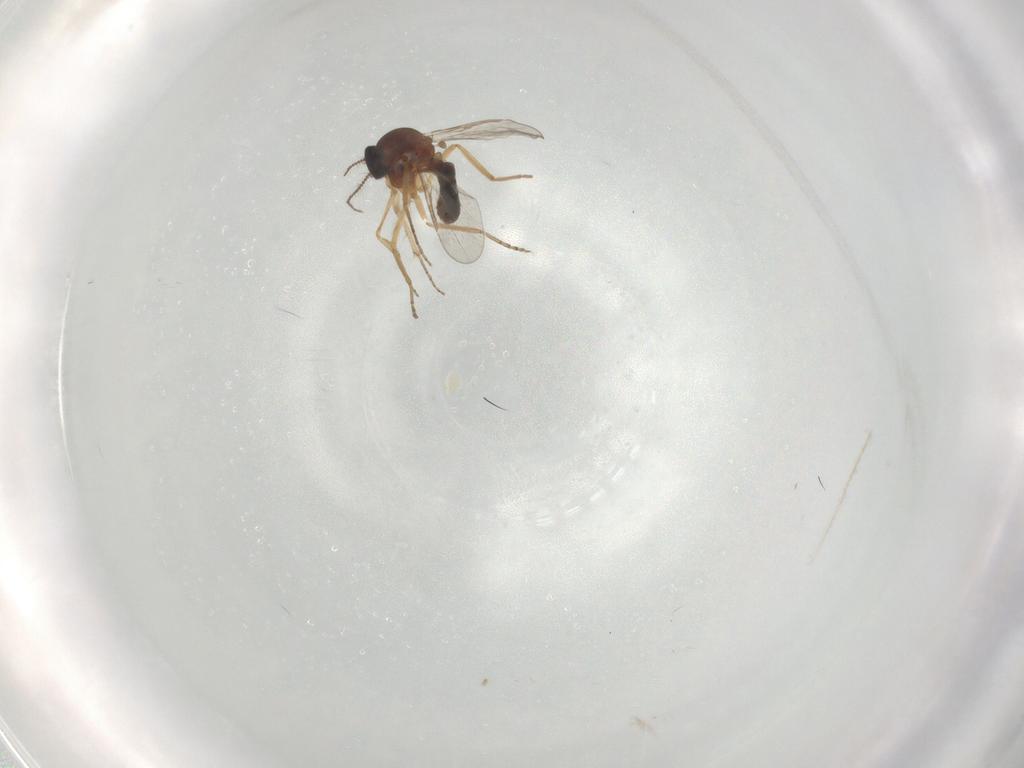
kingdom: Animalia
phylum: Arthropoda
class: Insecta
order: Diptera
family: Ceratopogonidae
